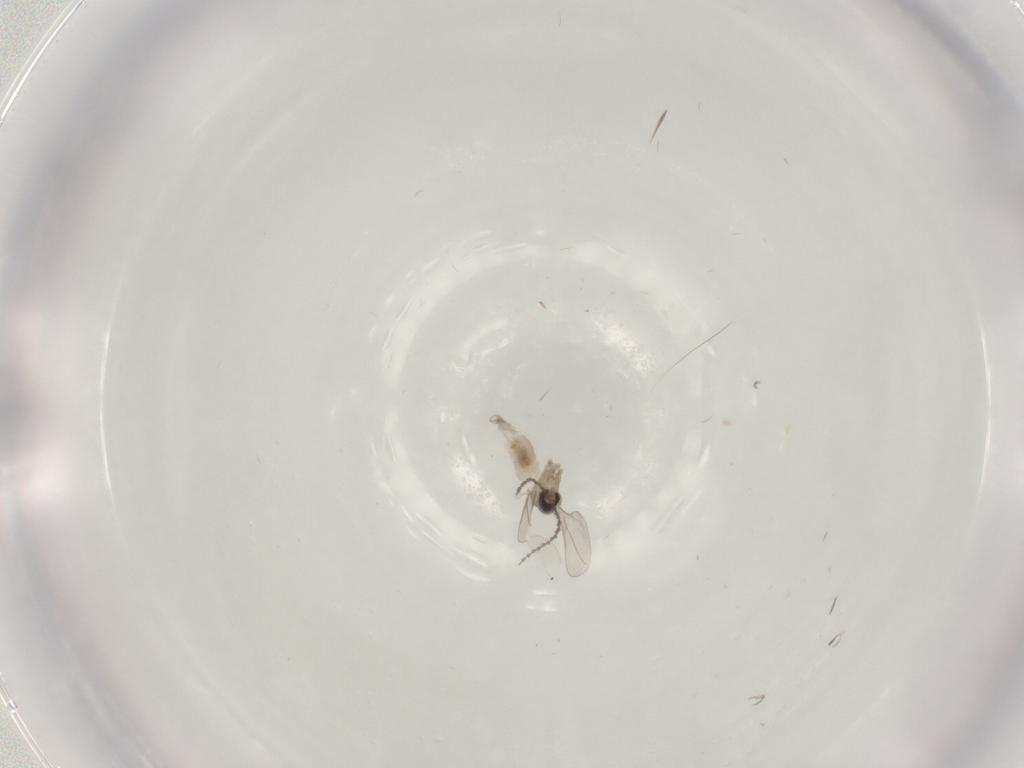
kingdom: Animalia
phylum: Arthropoda
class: Insecta
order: Diptera
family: Cecidomyiidae
